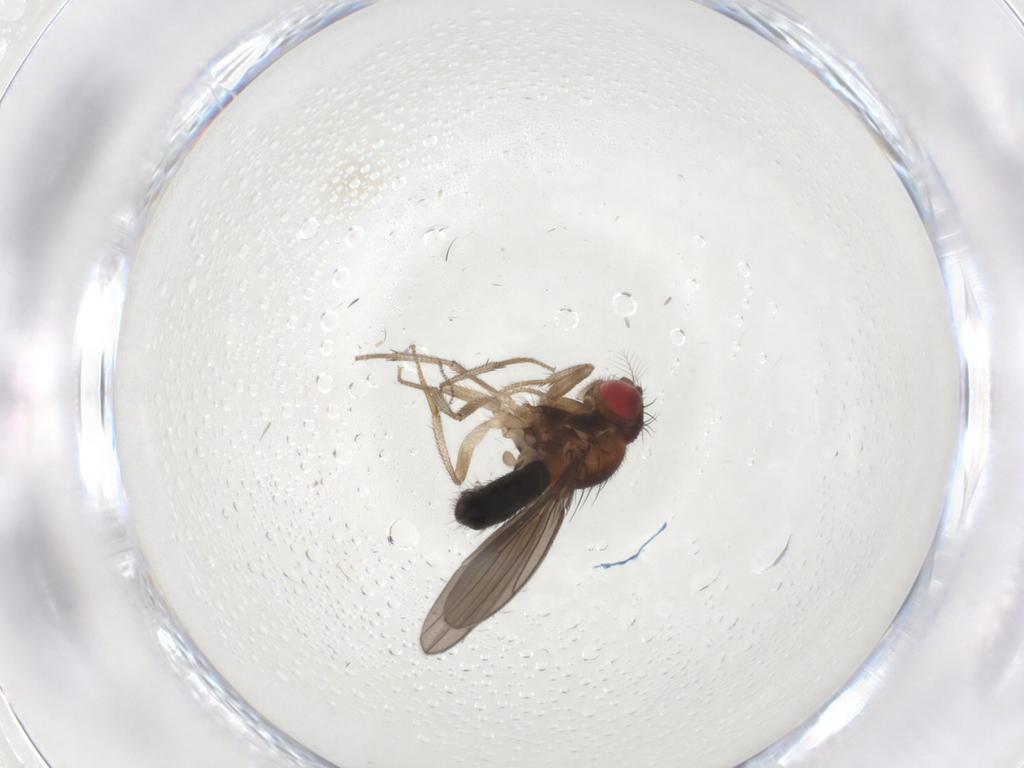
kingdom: Animalia
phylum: Arthropoda
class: Insecta
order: Diptera
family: Drosophilidae
